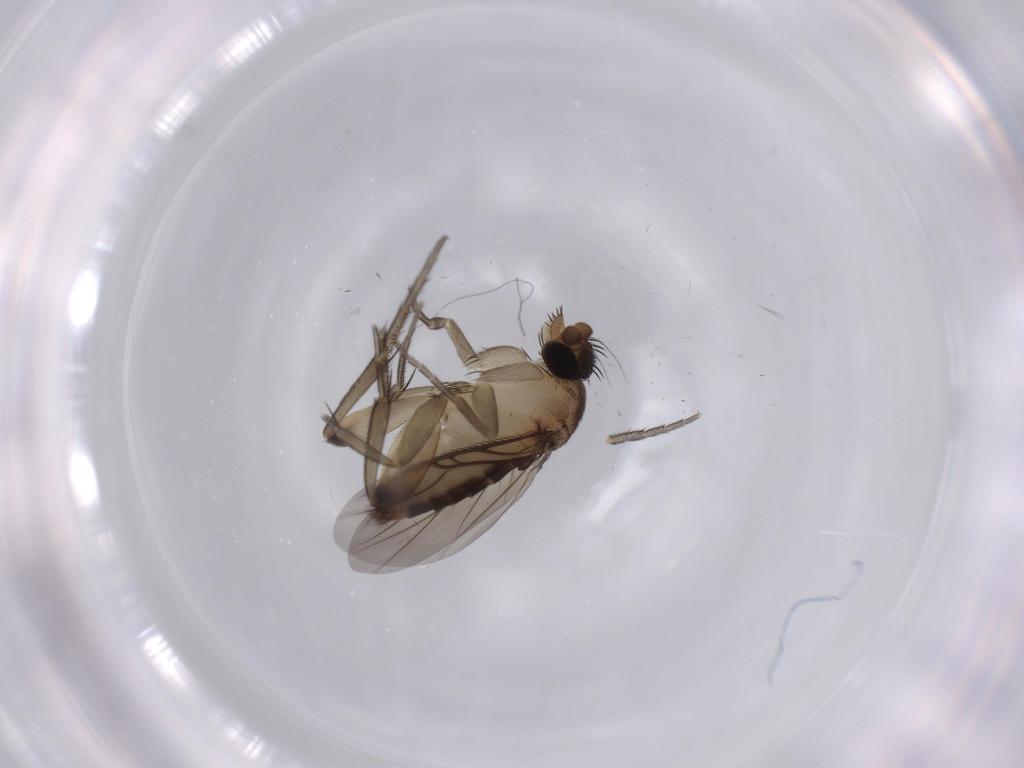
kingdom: Animalia
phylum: Arthropoda
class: Insecta
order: Diptera
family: Phoridae
